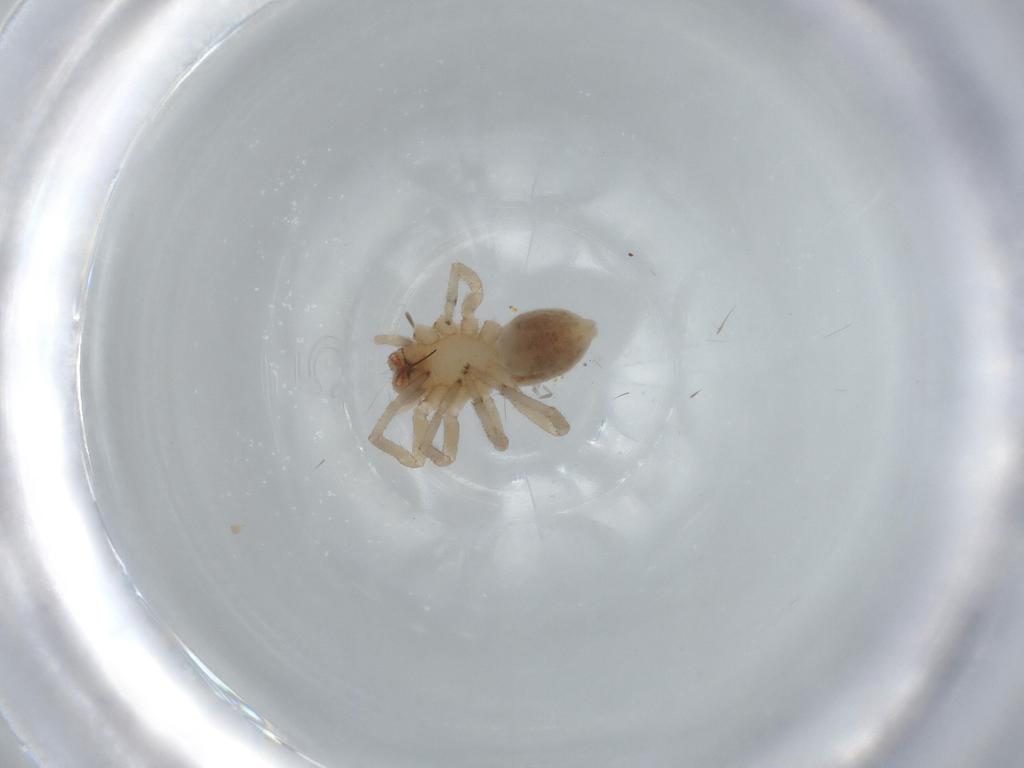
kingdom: Animalia
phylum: Arthropoda
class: Arachnida
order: Araneae
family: Trachelidae
